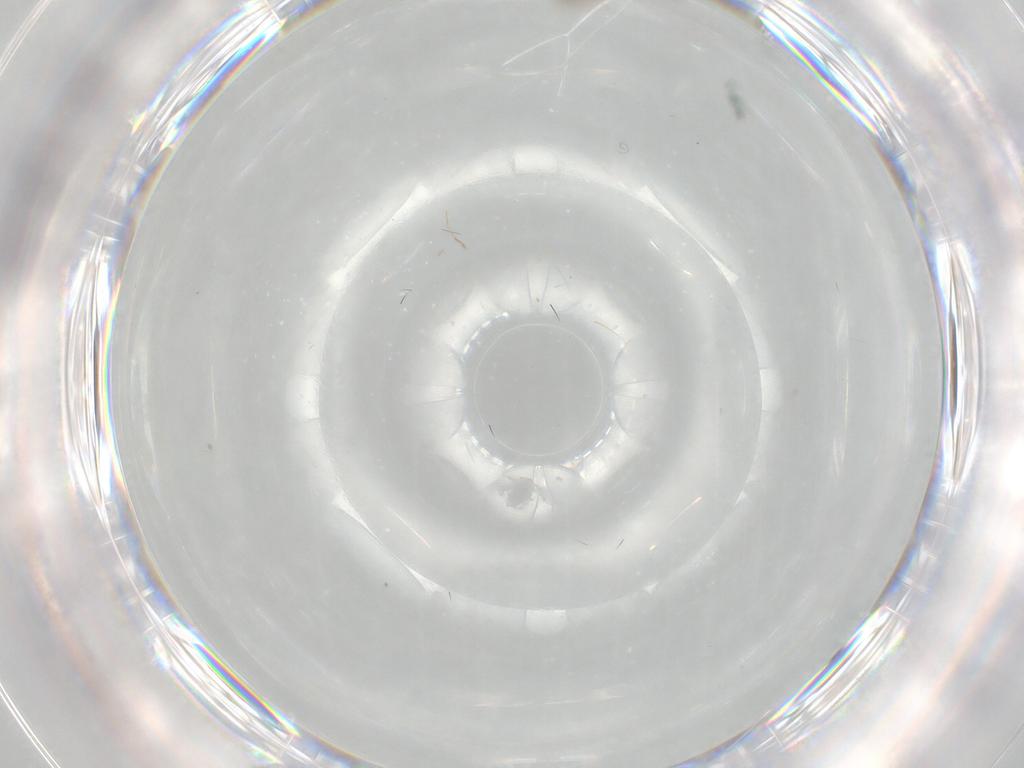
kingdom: Animalia
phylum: Arthropoda
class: Insecta
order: Diptera
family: Chironomidae
